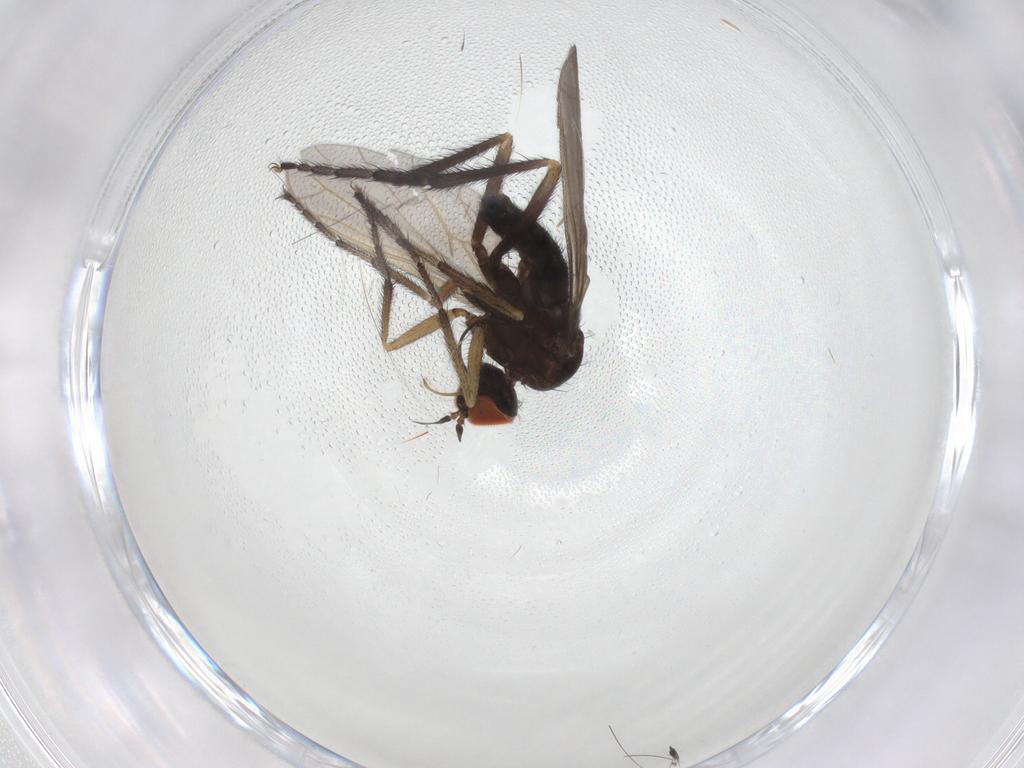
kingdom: Animalia
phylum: Arthropoda
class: Insecta
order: Diptera
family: Empididae
